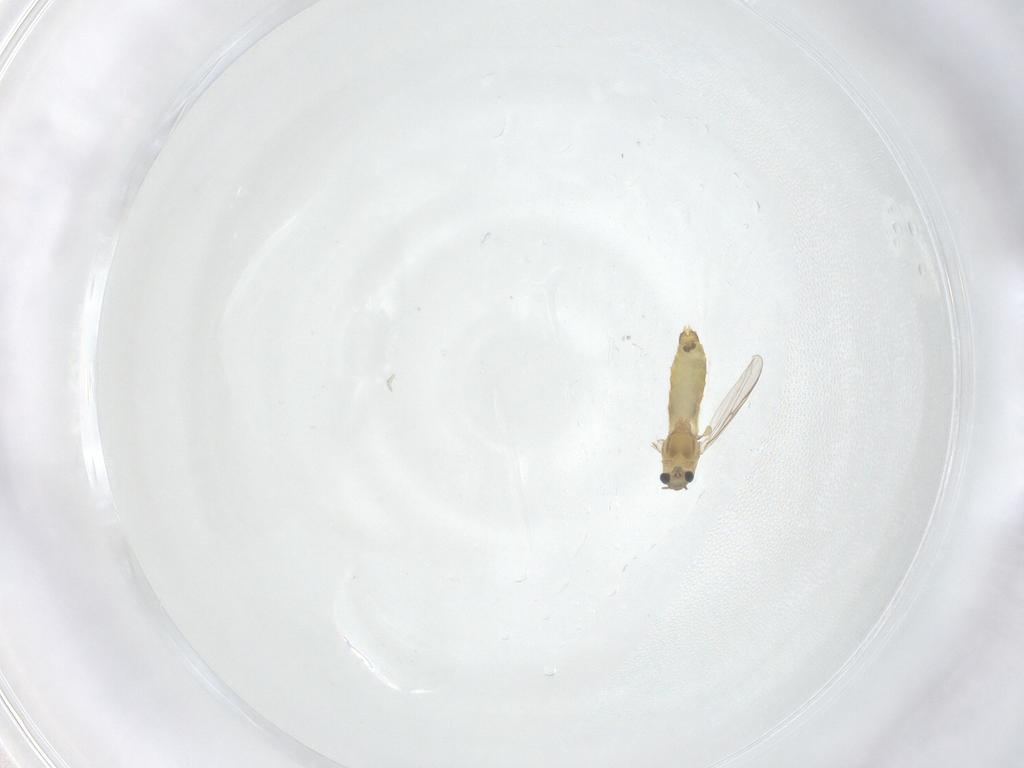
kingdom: Animalia
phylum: Arthropoda
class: Insecta
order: Diptera
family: Chironomidae
